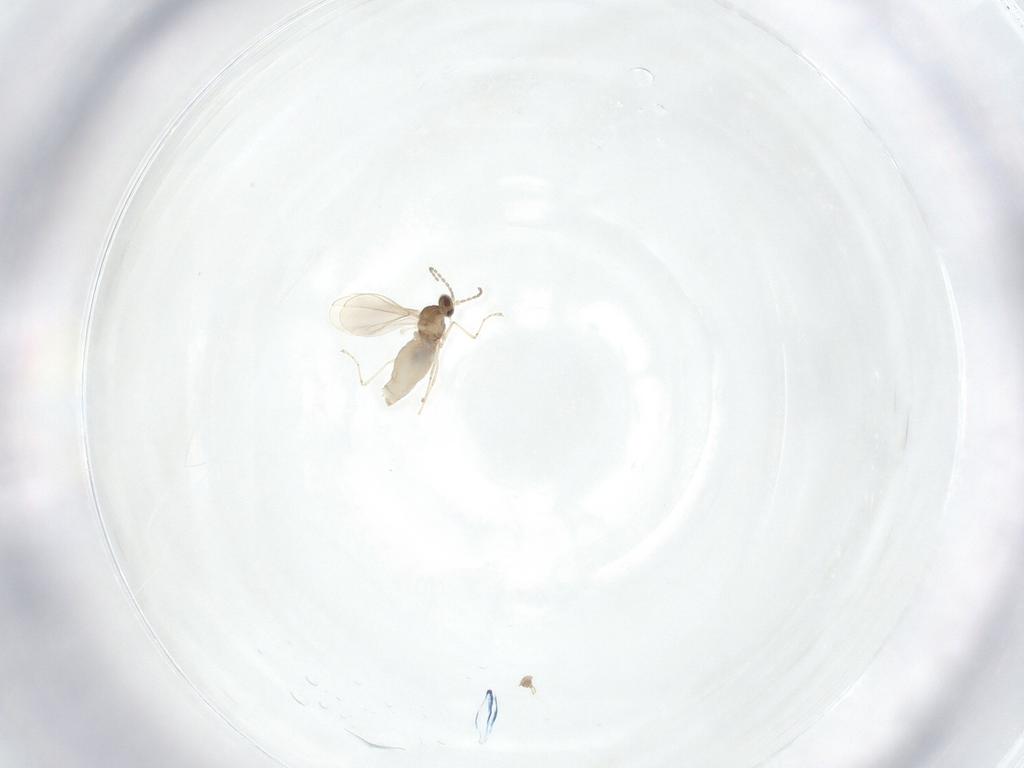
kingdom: Animalia
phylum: Arthropoda
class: Insecta
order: Diptera
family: Cecidomyiidae
